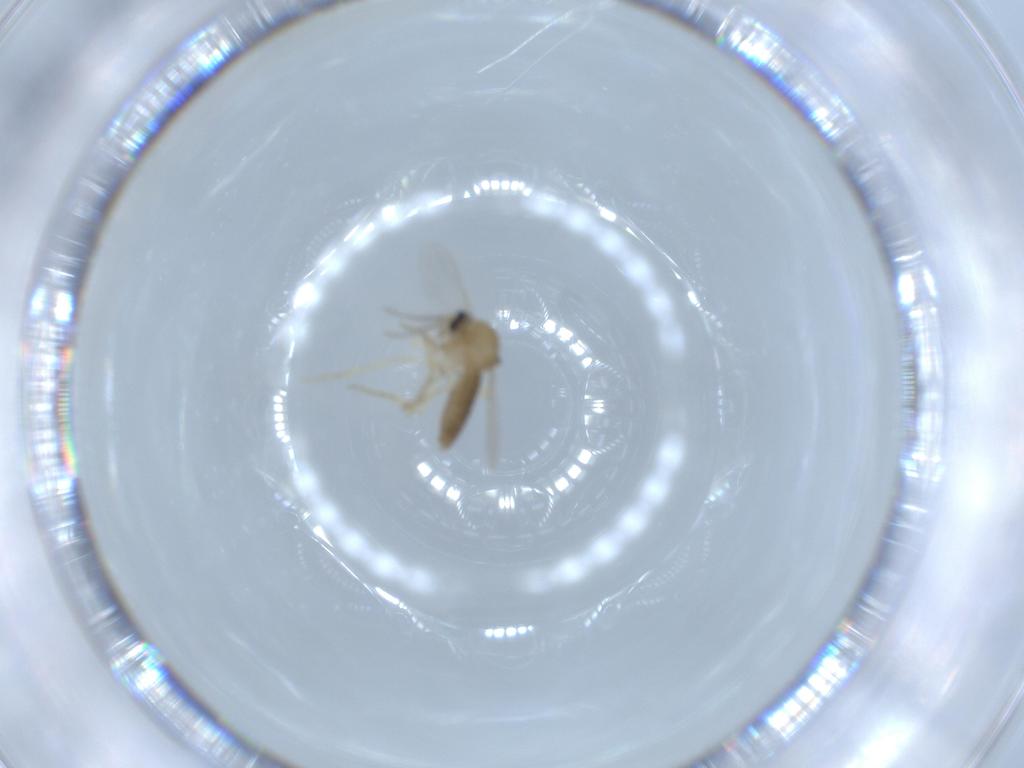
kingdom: Animalia
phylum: Arthropoda
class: Insecta
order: Diptera
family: Ceratopogonidae
